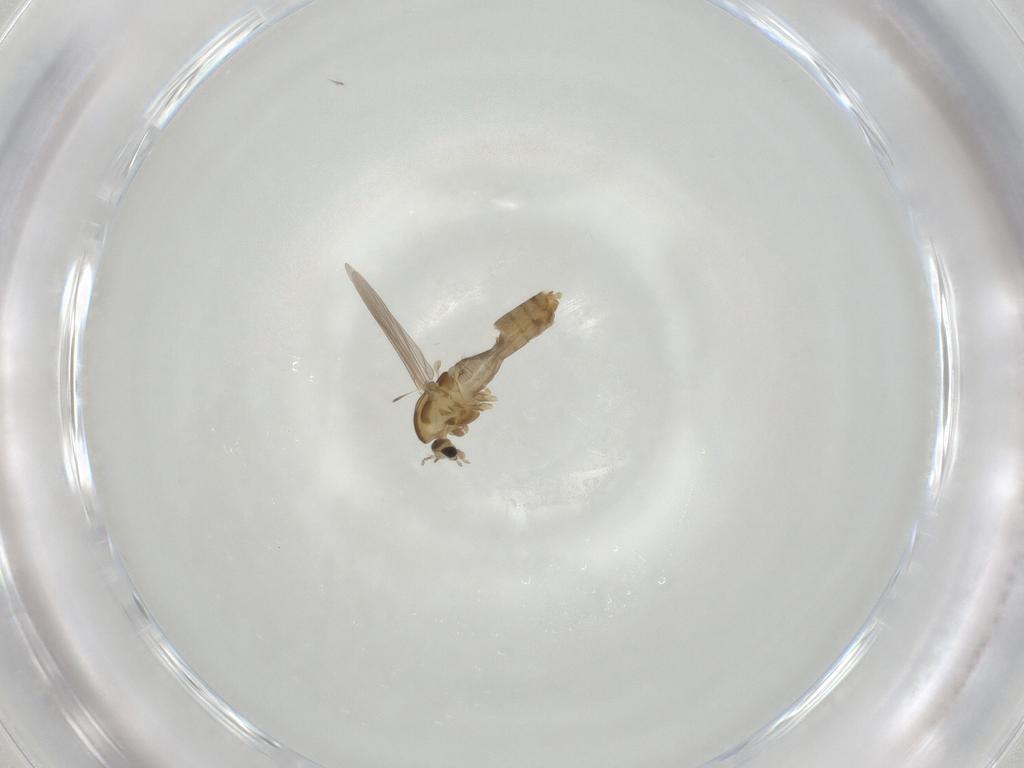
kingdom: Animalia
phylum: Arthropoda
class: Insecta
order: Diptera
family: Chironomidae
